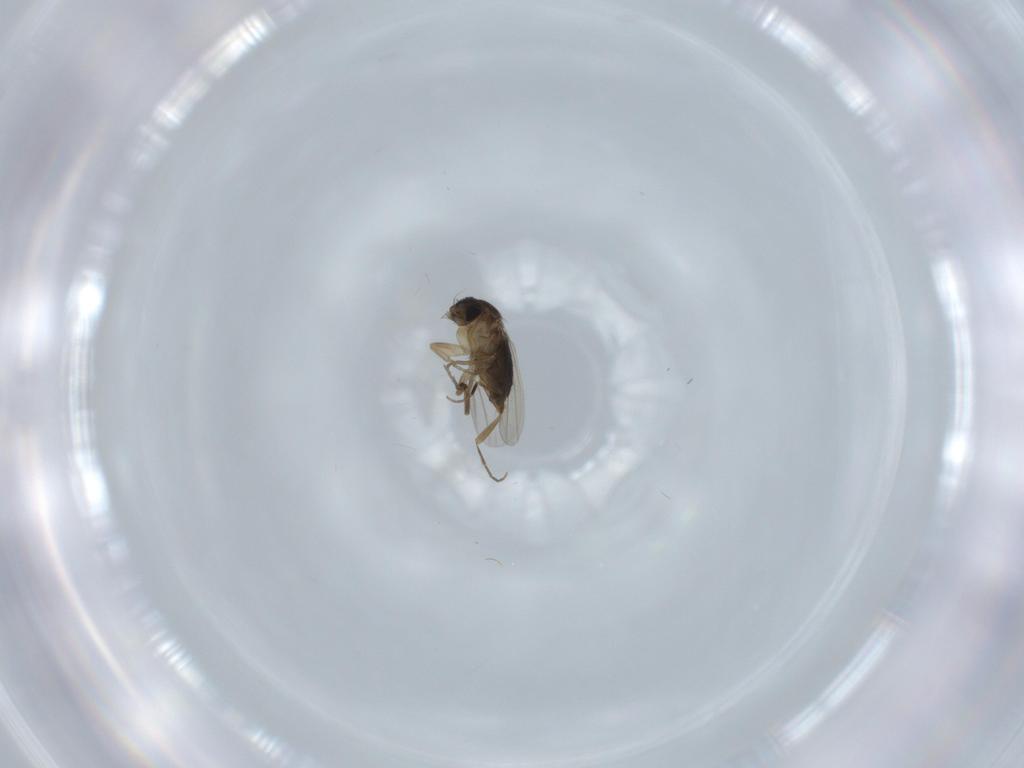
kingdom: Animalia
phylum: Arthropoda
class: Insecta
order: Diptera
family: Phoridae
